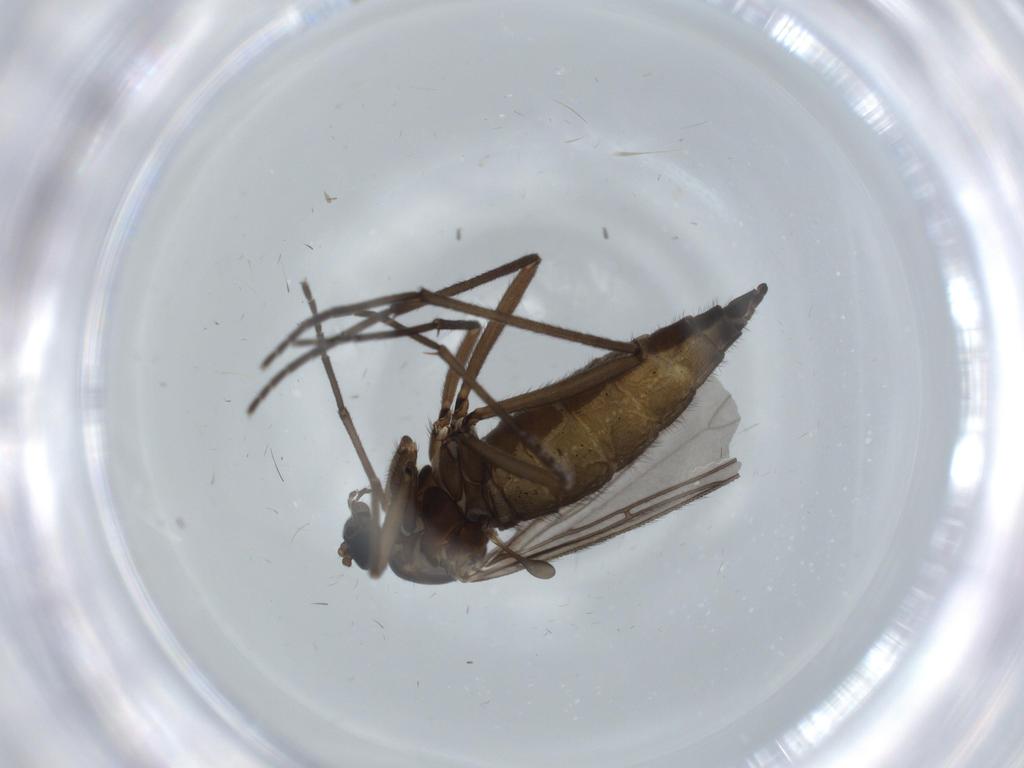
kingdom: Animalia
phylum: Arthropoda
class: Insecta
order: Diptera
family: Sciaridae
